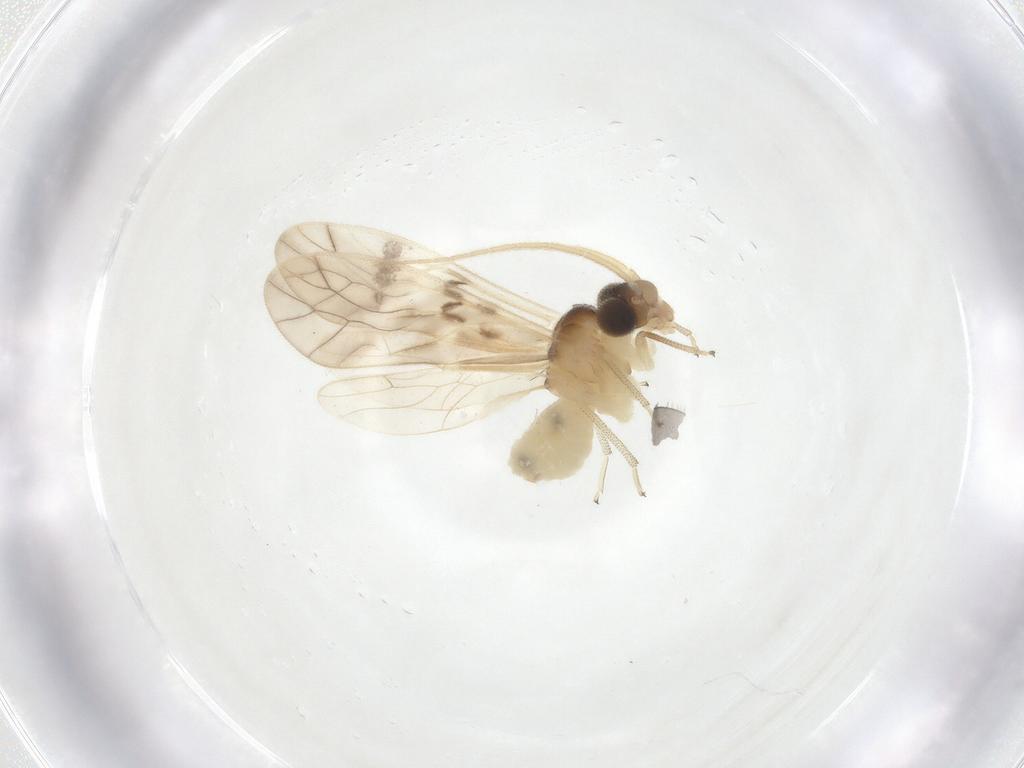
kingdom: Animalia
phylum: Arthropoda
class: Insecta
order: Psocodea
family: Caeciliusidae
